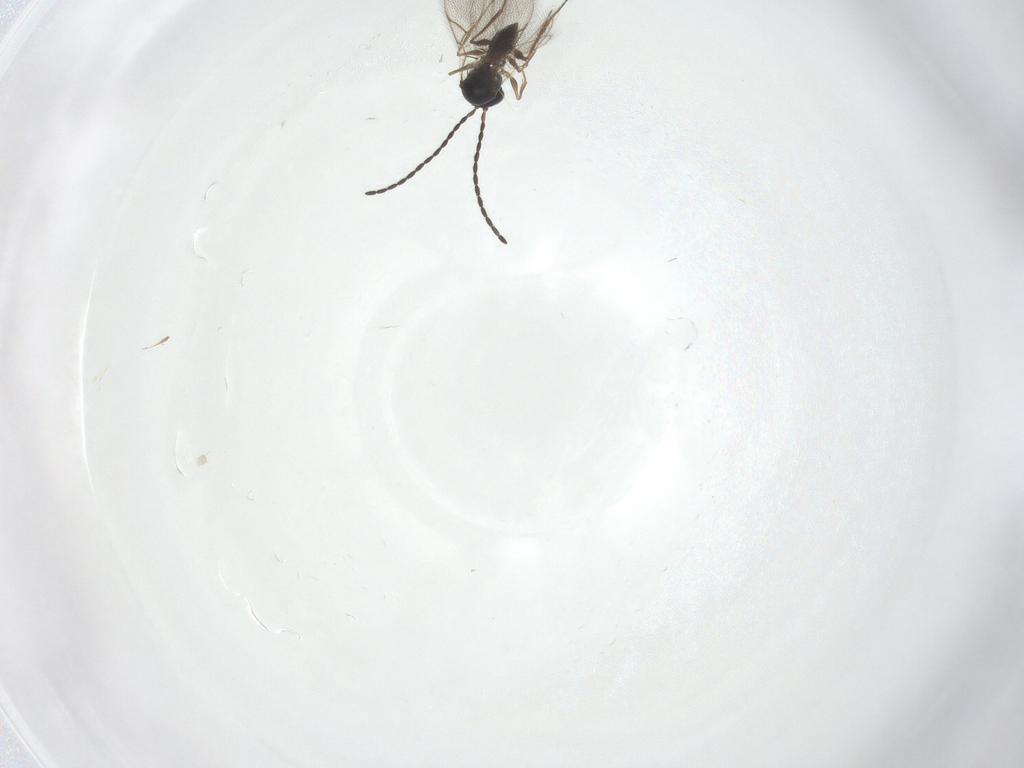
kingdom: Animalia
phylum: Arthropoda
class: Insecta
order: Hymenoptera
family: Figitidae
